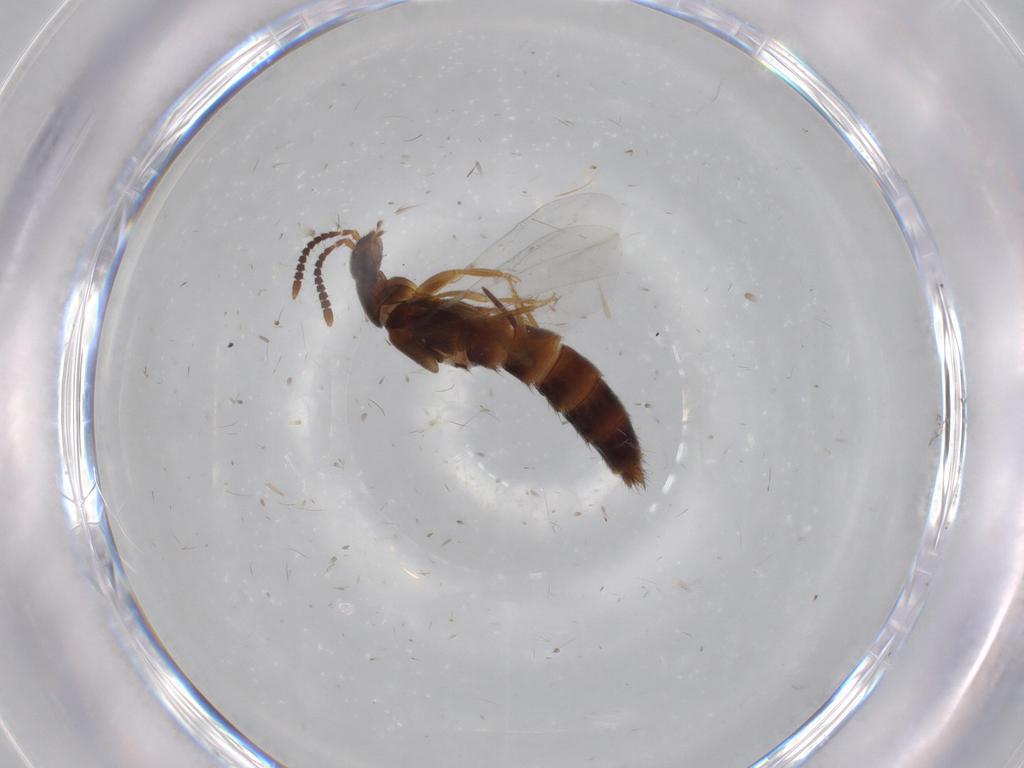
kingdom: Animalia
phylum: Arthropoda
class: Insecta
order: Coleoptera
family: Staphylinidae
